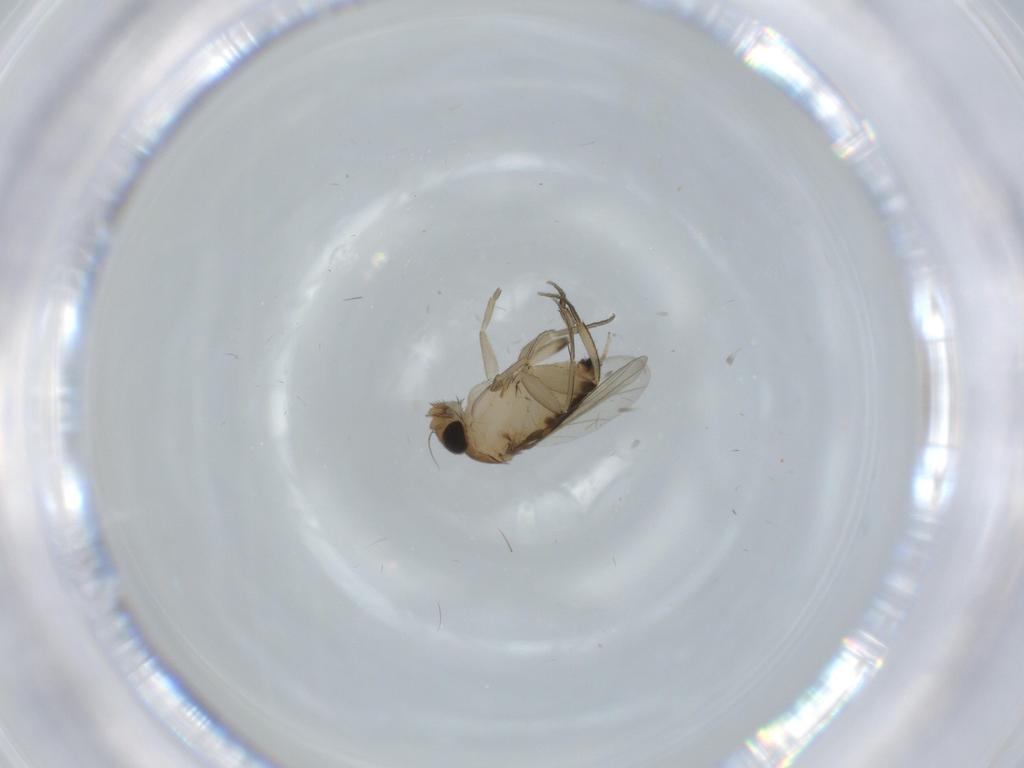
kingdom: Animalia
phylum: Arthropoda
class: Insecta
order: Diptera
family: Phoridae
